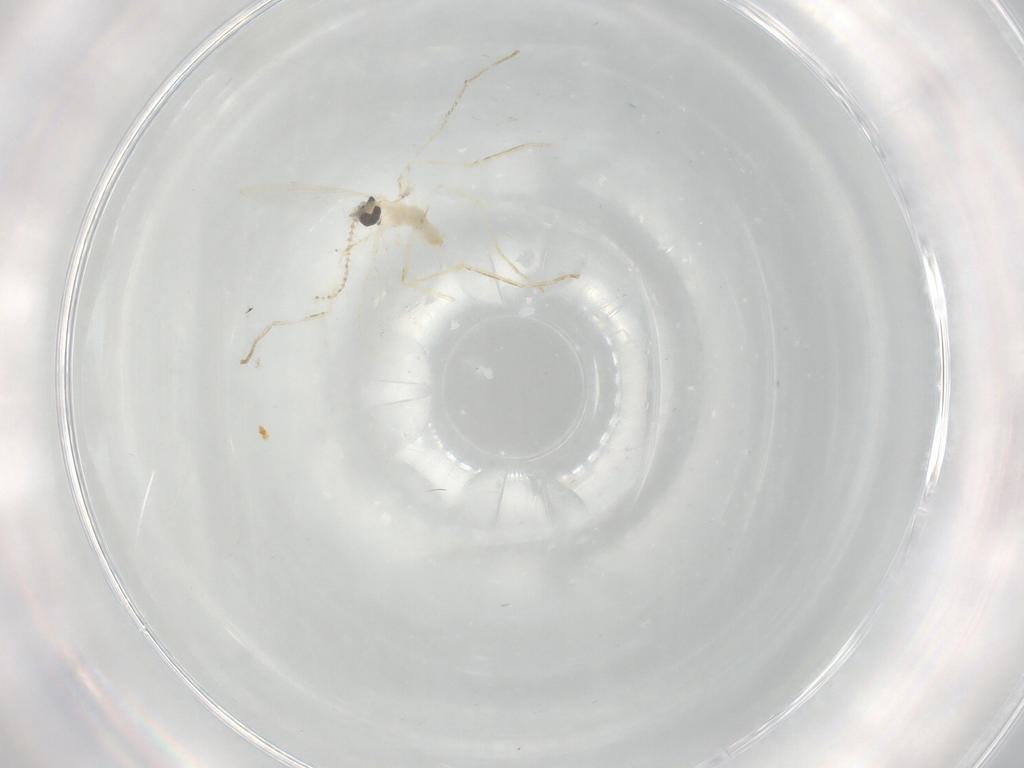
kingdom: Animalia
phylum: Arthropoda
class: Insecta
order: Diptera
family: Cecidomyiidae
